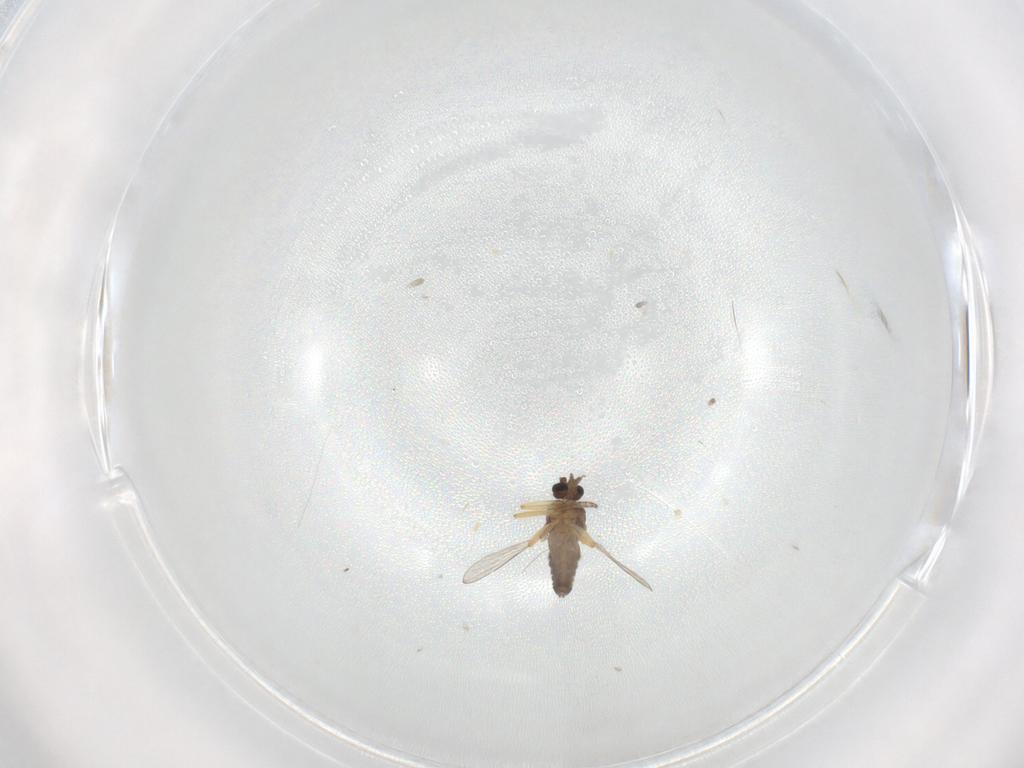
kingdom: Animalia
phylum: Arthropoda
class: Insecta
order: Diptera
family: Ceratopogonidae
